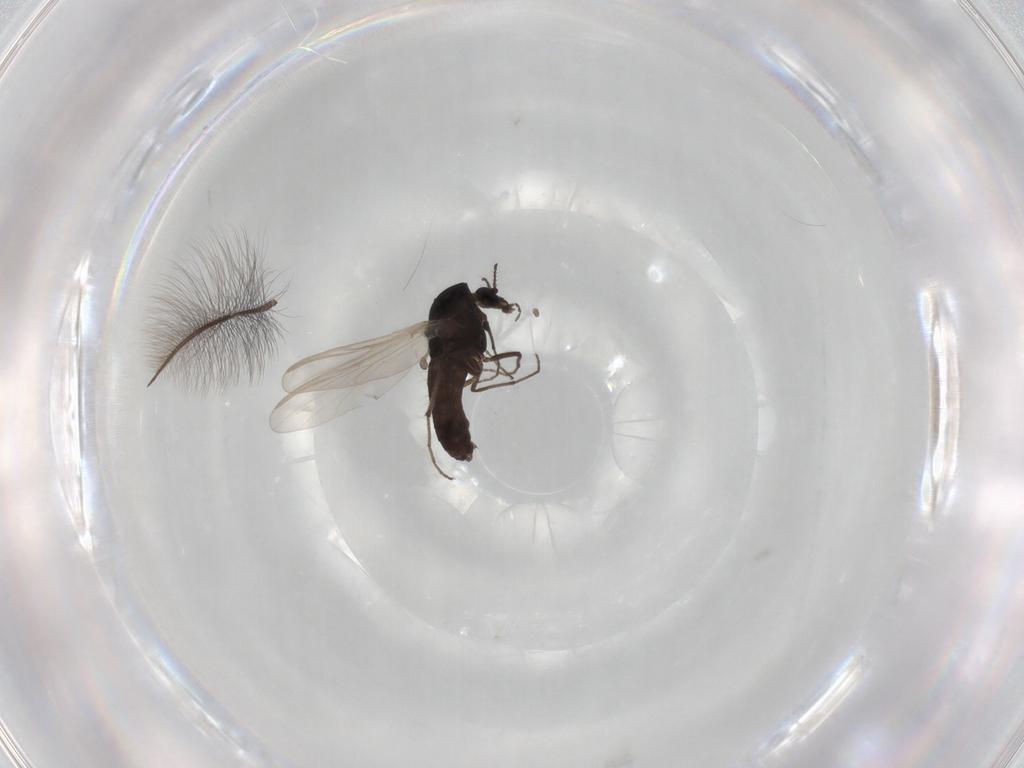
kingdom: Animalia
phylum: Arthropoda
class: Insecta
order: Diptera
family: Chironomidae
